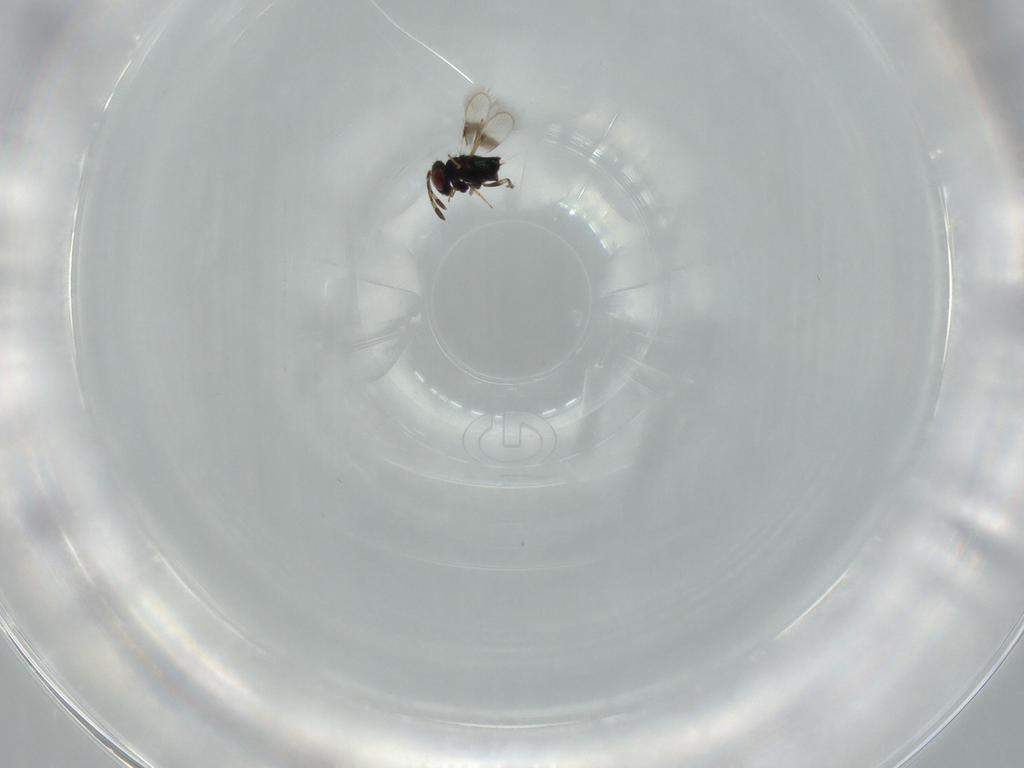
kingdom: Animalia
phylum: Arthropoda
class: Insecta
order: Hymenoptera
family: Azotidae
